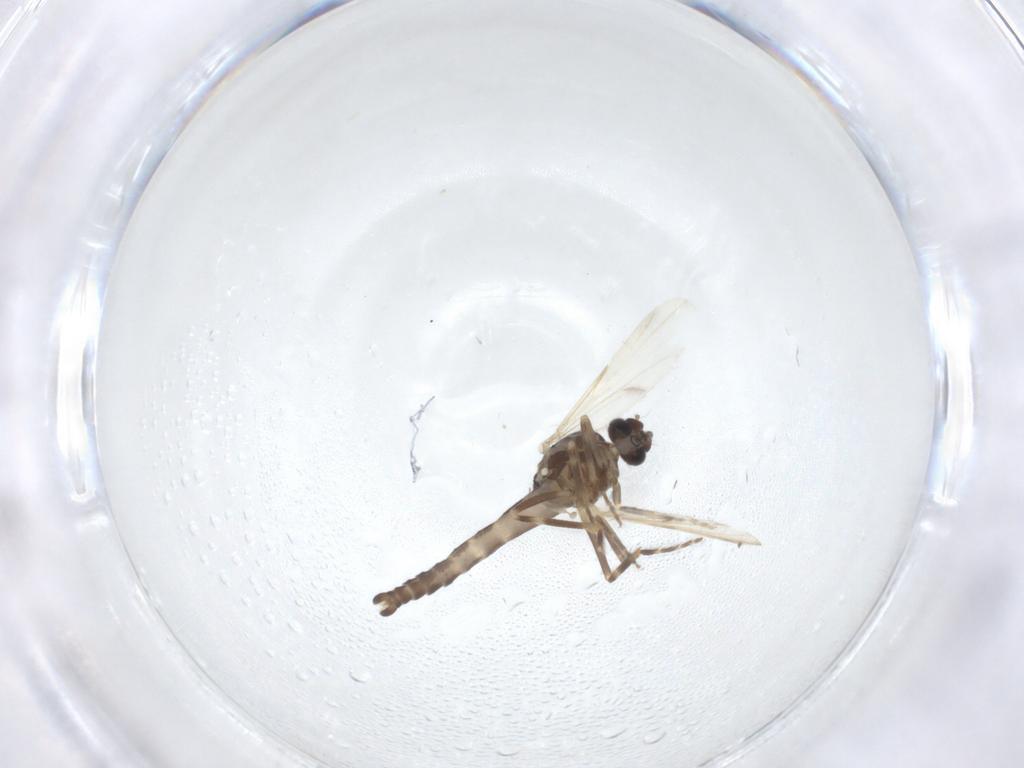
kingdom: Animalia
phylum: Arthropoda
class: Insecta
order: Diptera
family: Ceratopogonidae
